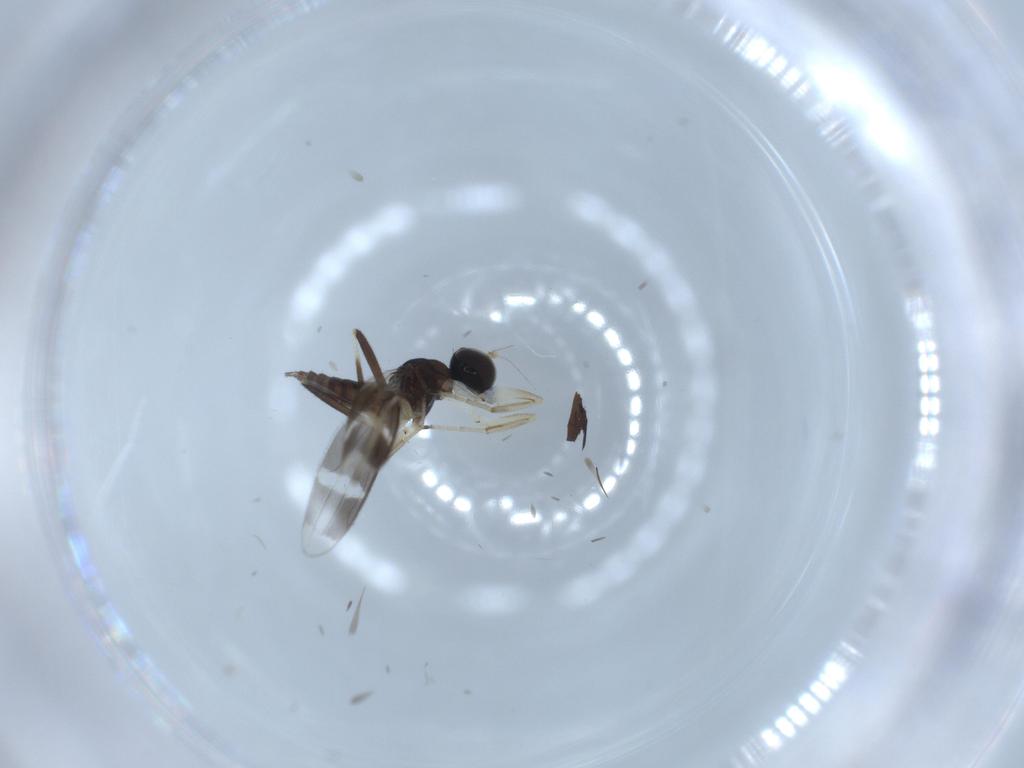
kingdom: Animalia
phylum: Arthropoda
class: Insecta
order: Diptera
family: Hybotidae
